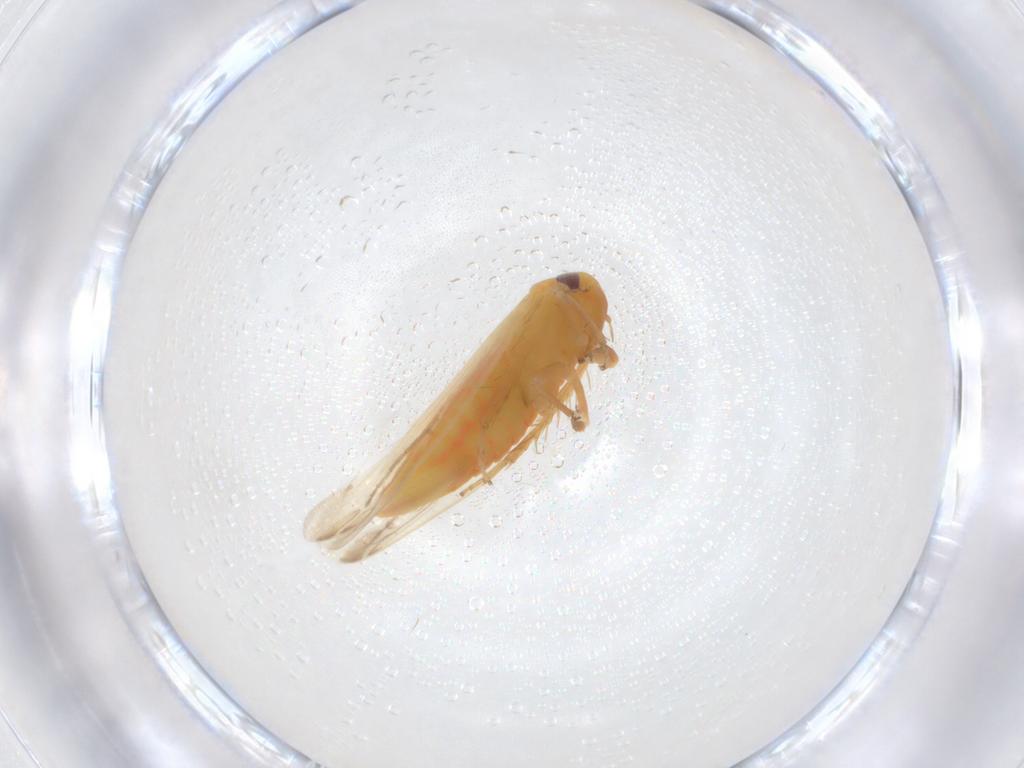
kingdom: Animalia
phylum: Arthropoda
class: Insecta
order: Hemiptera
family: Cicadellidae
